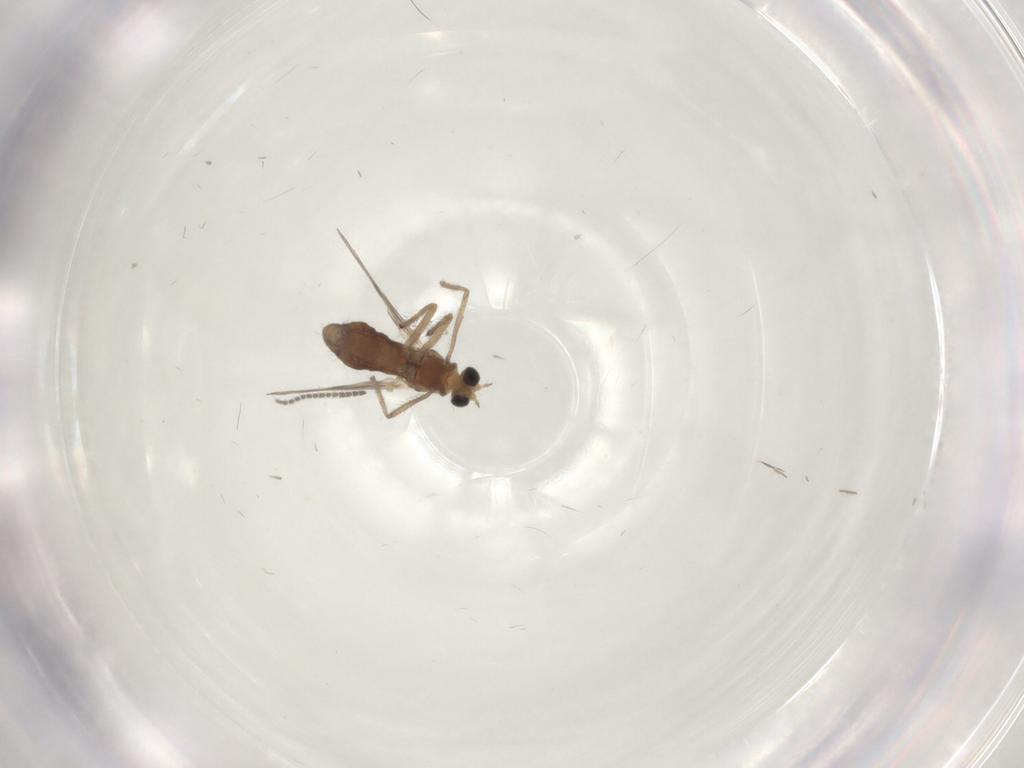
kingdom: Animalia
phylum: Arthropoda
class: Insecta
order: Diptera
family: Chironomidae
